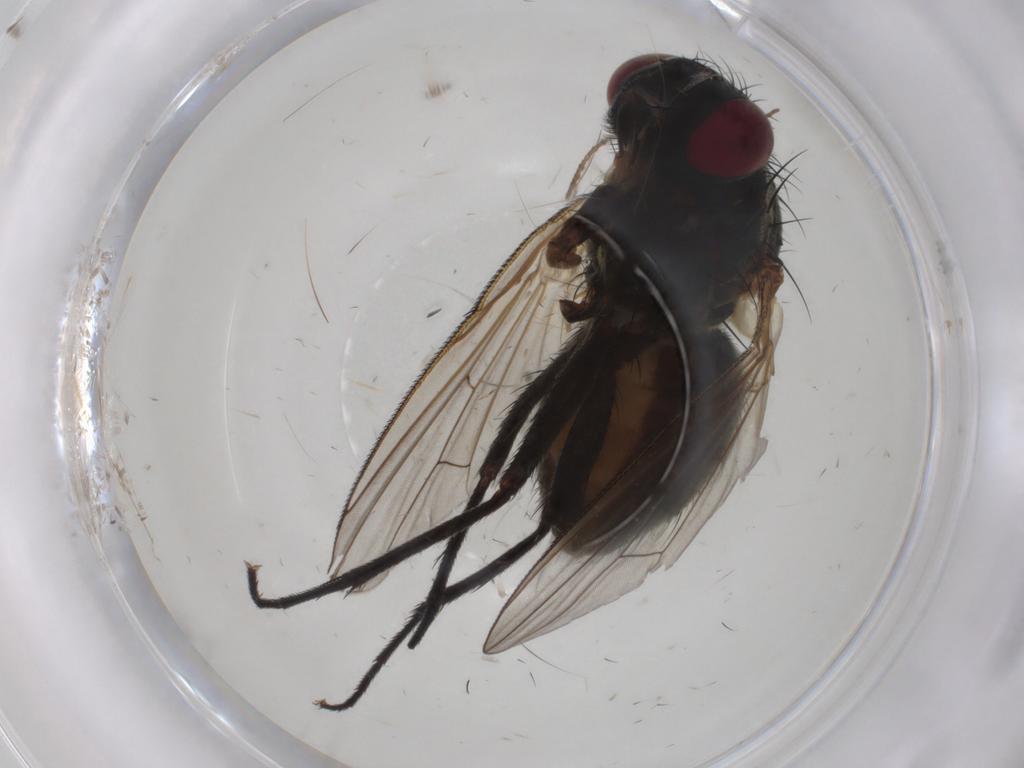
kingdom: Animalia
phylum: Arthropoda
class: Insecta
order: Diptera
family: Muscidae
